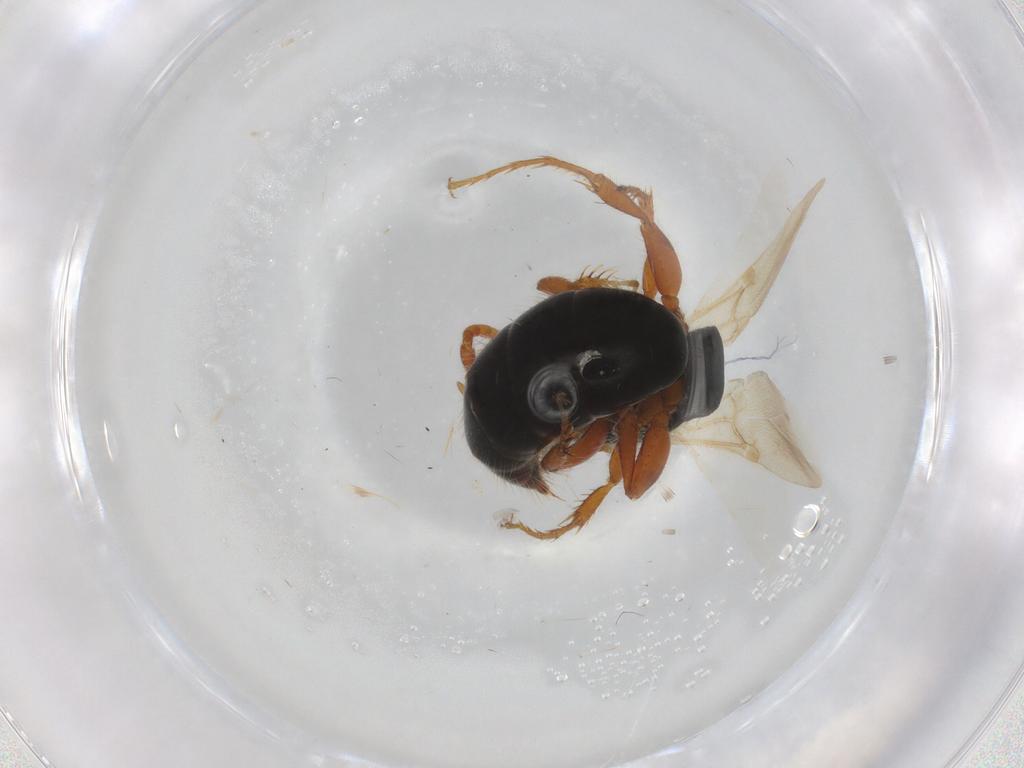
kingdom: Animalia
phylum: Arthropoda
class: Insecta
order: Hymenoptera
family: Bethylidae
